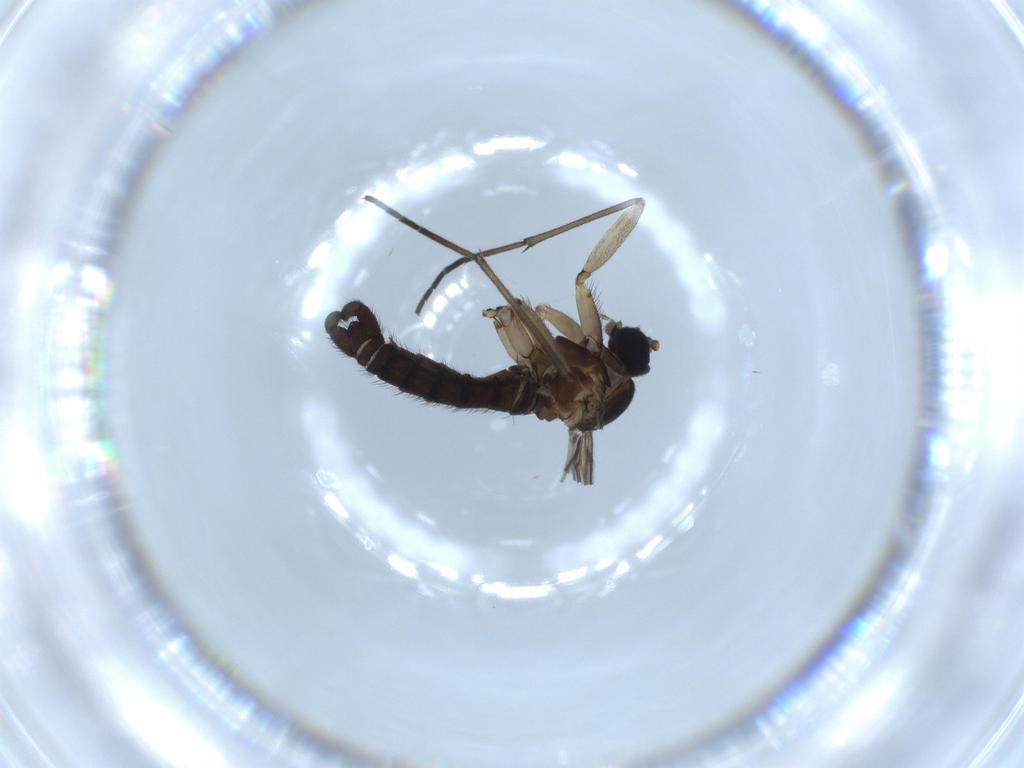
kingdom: Animalia
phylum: Arthropoda
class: Insecta
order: Diptera
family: Sciaridae
